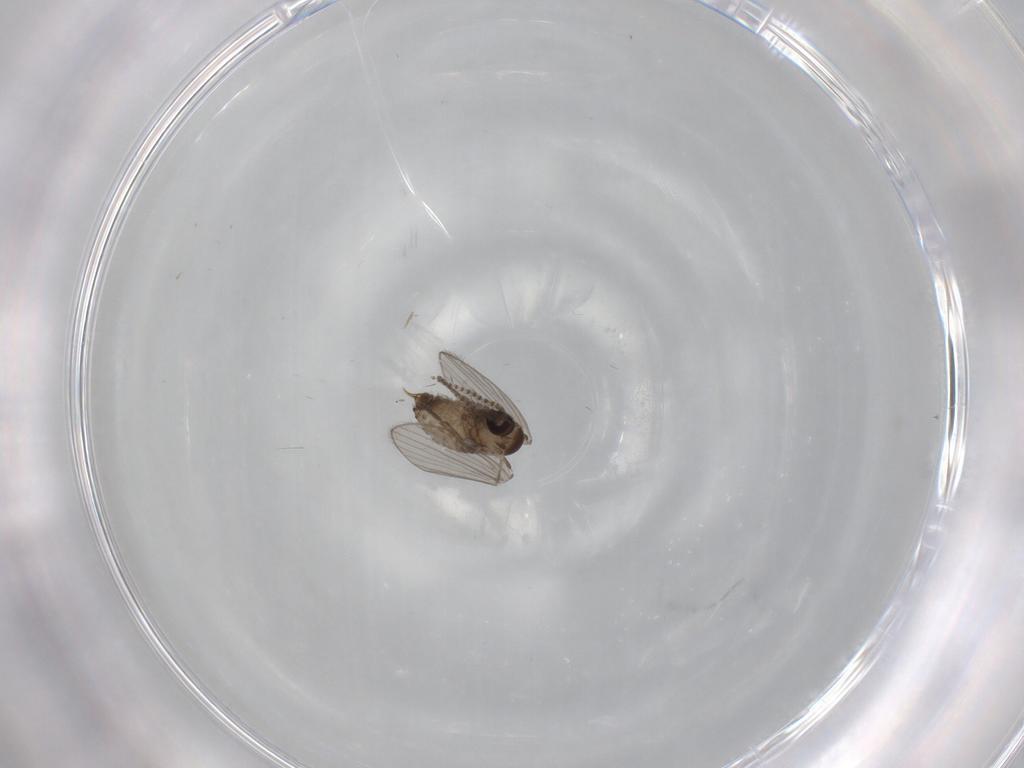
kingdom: Animalia
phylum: Arthropoda
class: Insecta
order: Diptera
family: Psychodidae
